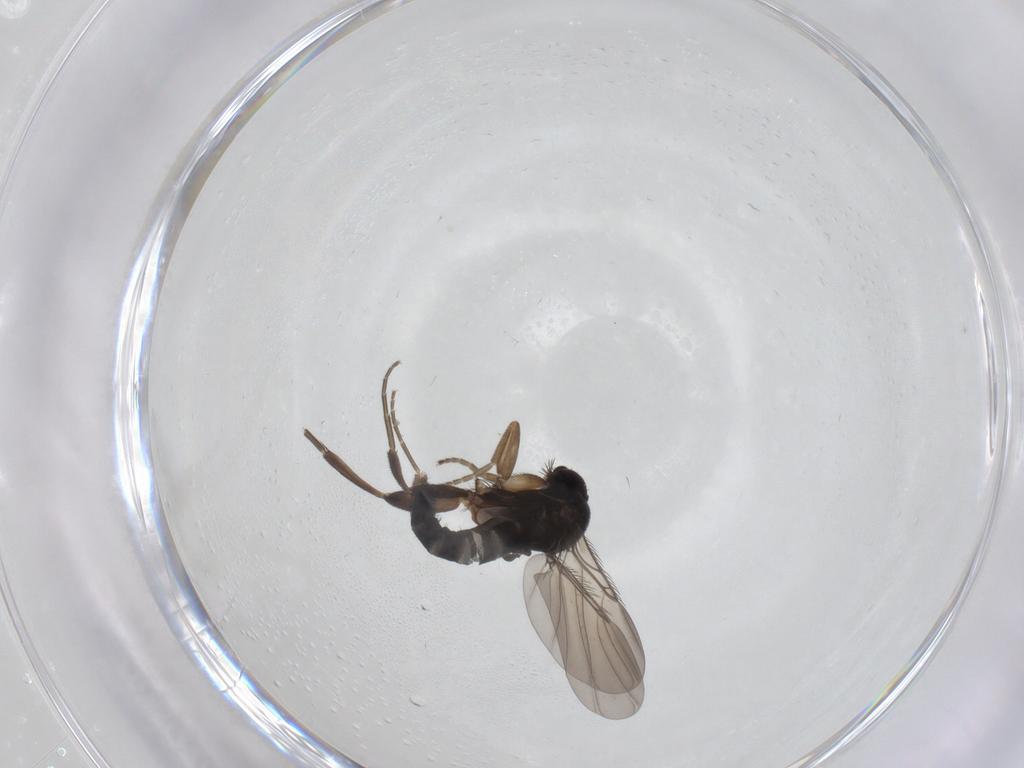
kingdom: Animalia
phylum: Arthropoda
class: Insecta
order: Diptera
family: Phoridae
